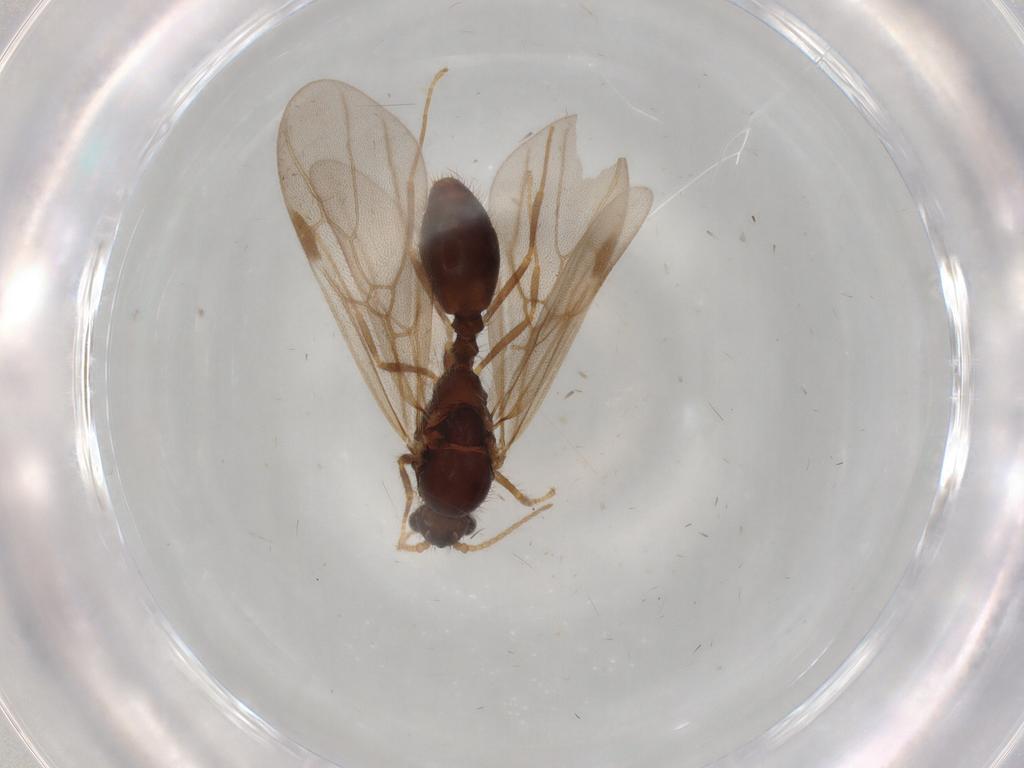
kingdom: Animalia
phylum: Arthropoda
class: Insecta
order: Hymenoptera
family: Formicidae
